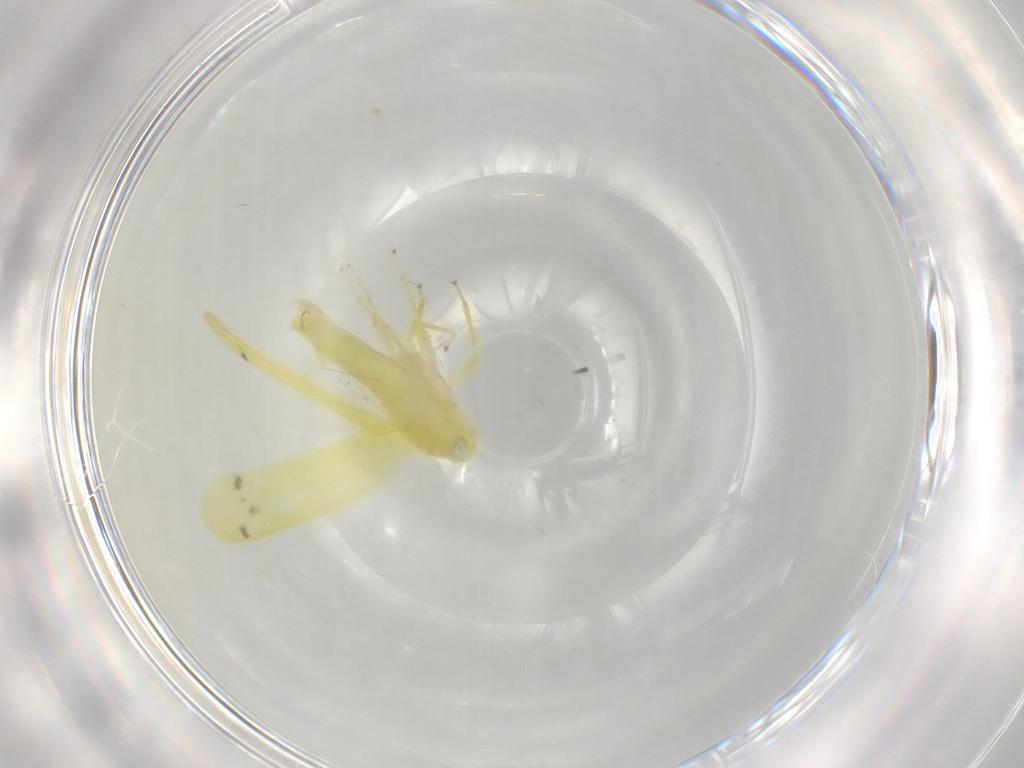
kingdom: Animalia
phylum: Arthropoda
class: Insecta
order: Hemiptera
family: Cicadellidae
